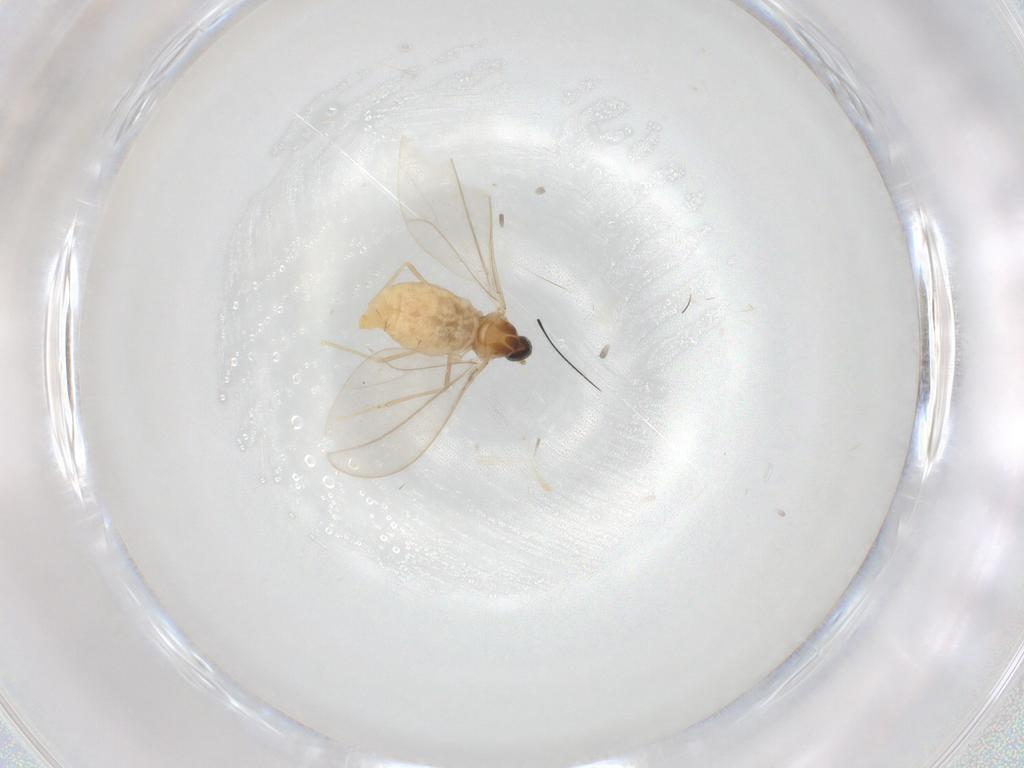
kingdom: Animalia
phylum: Arthropoda
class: Insecta
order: Diptera
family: Cecidomyiidae
